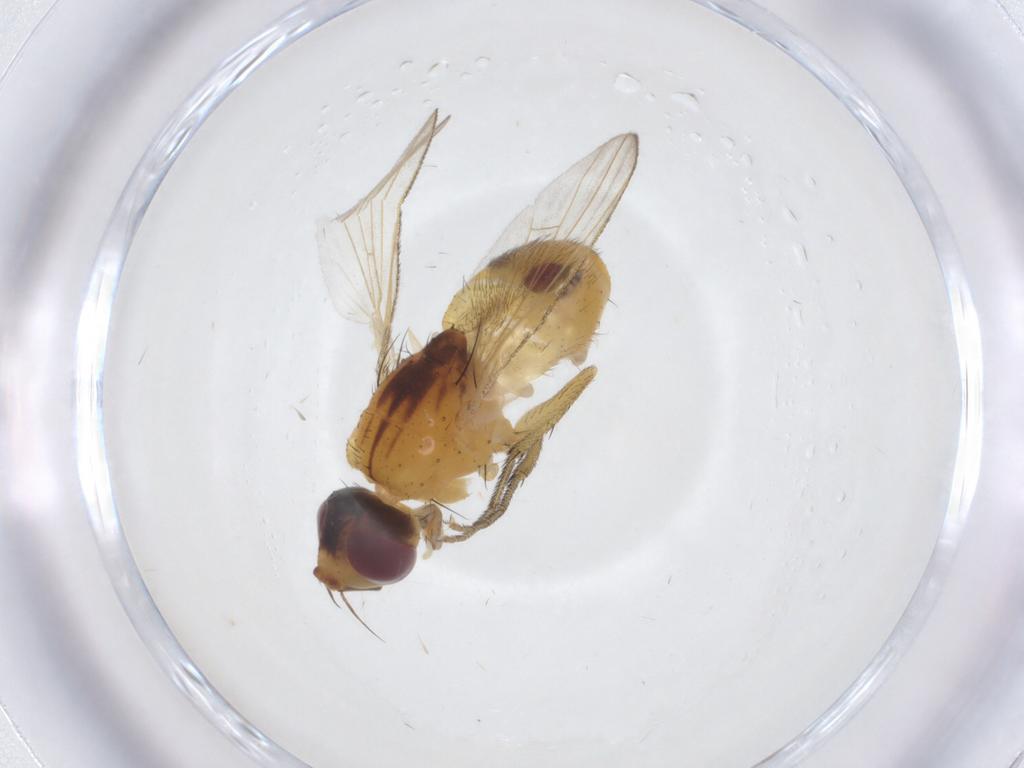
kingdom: Animalia
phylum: Arthropoda
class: Insecta
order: Diptera
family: Muscidae
